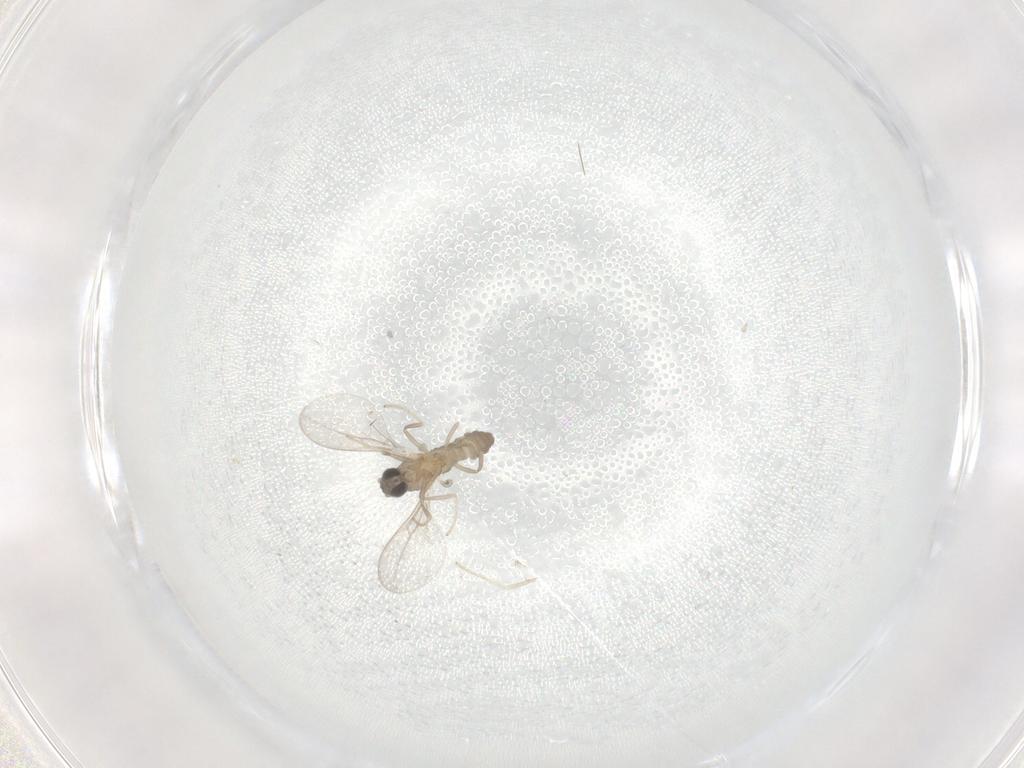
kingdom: Animalia
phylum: Arthropoda
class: Insecta
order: Diptera
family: Cecidomyiidae
